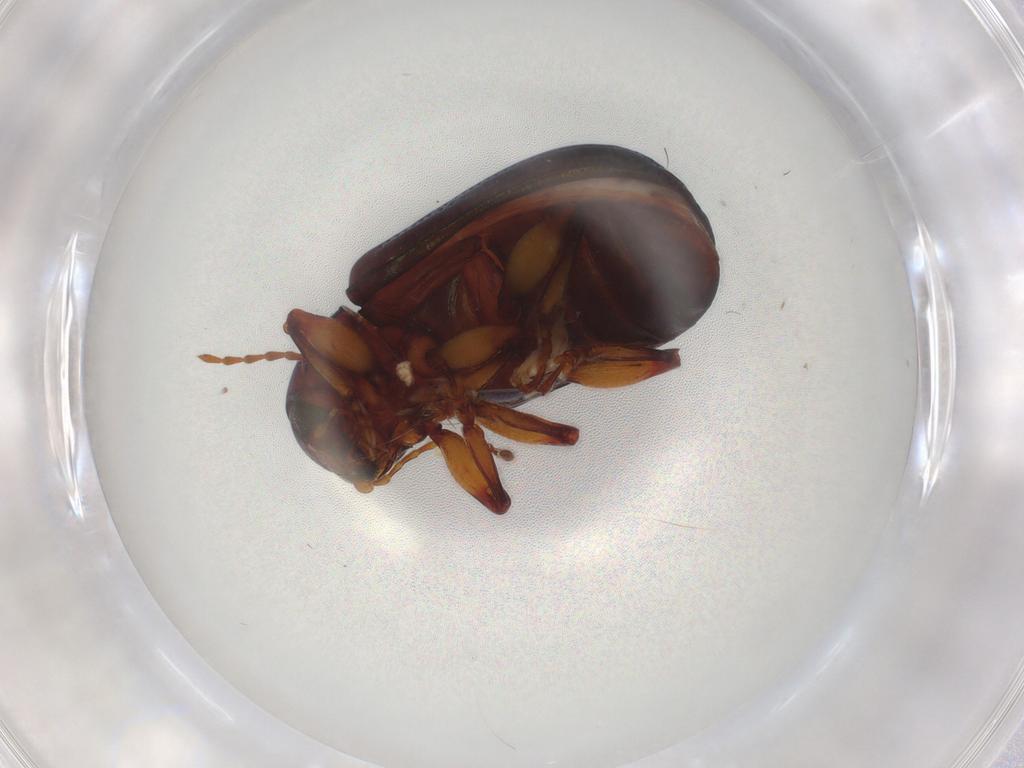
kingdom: Animalia
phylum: Arthropoda
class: Insecta
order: Coleoptera
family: Chrysomelidae
